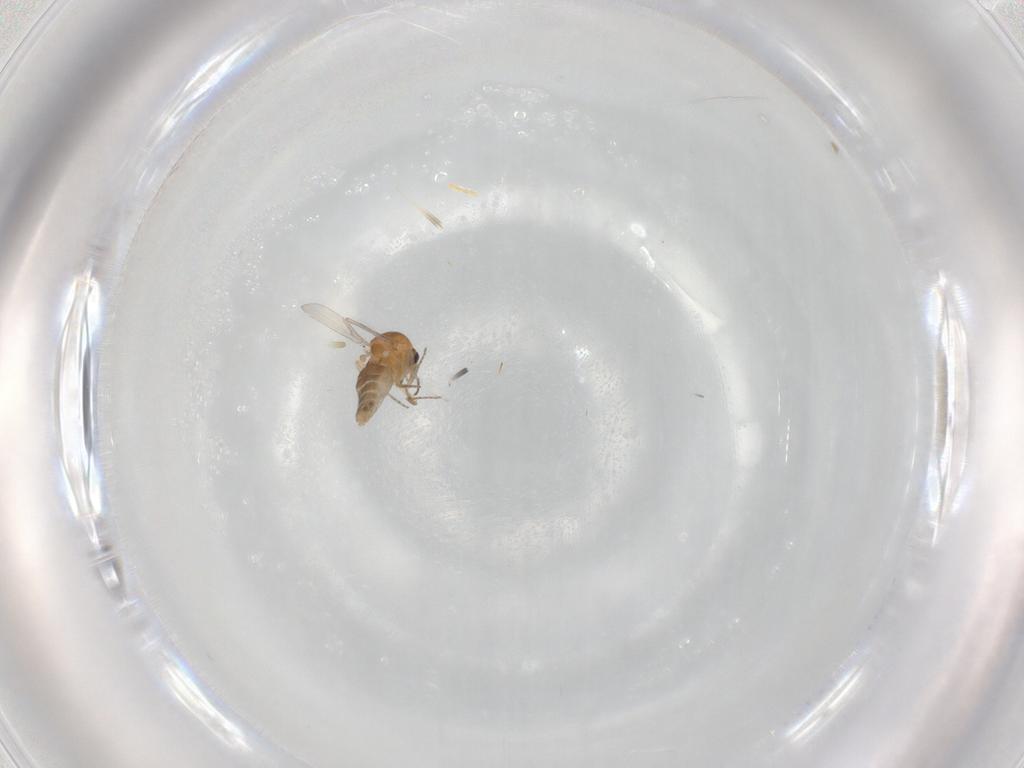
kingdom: Animalia
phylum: Arthropoda
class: Insecta
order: Diptera
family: Ceratopogonidae
